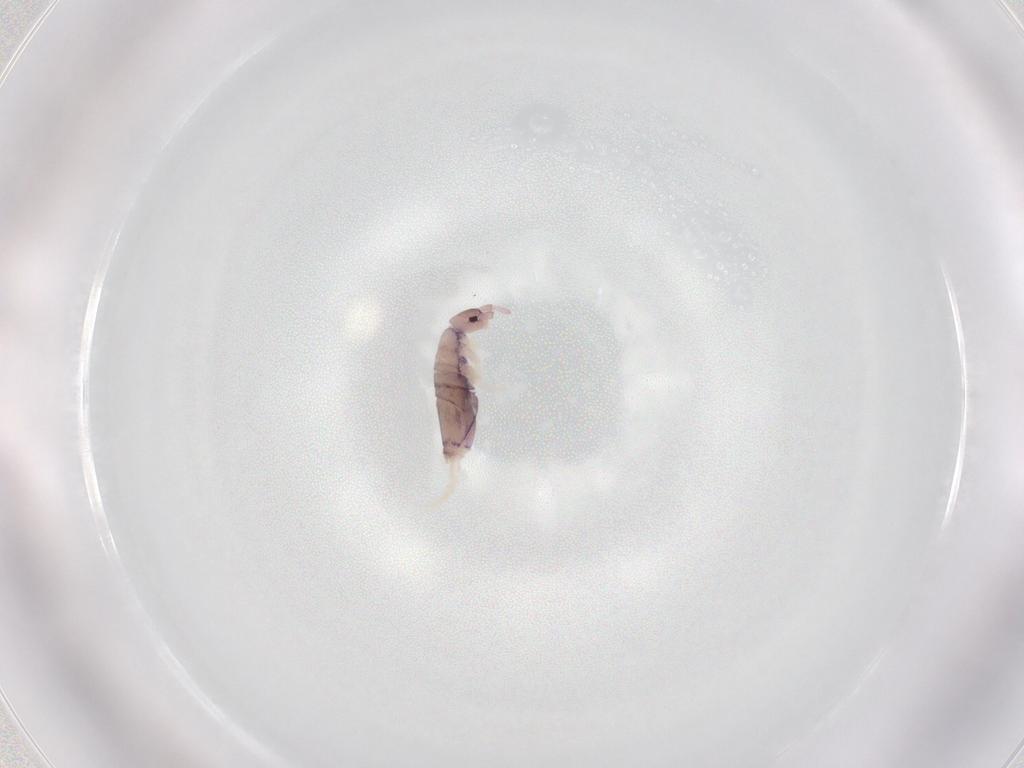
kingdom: Animalia
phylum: Arthropoda
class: Collembola
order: Entomobryomorpha
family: Entomobryidae
